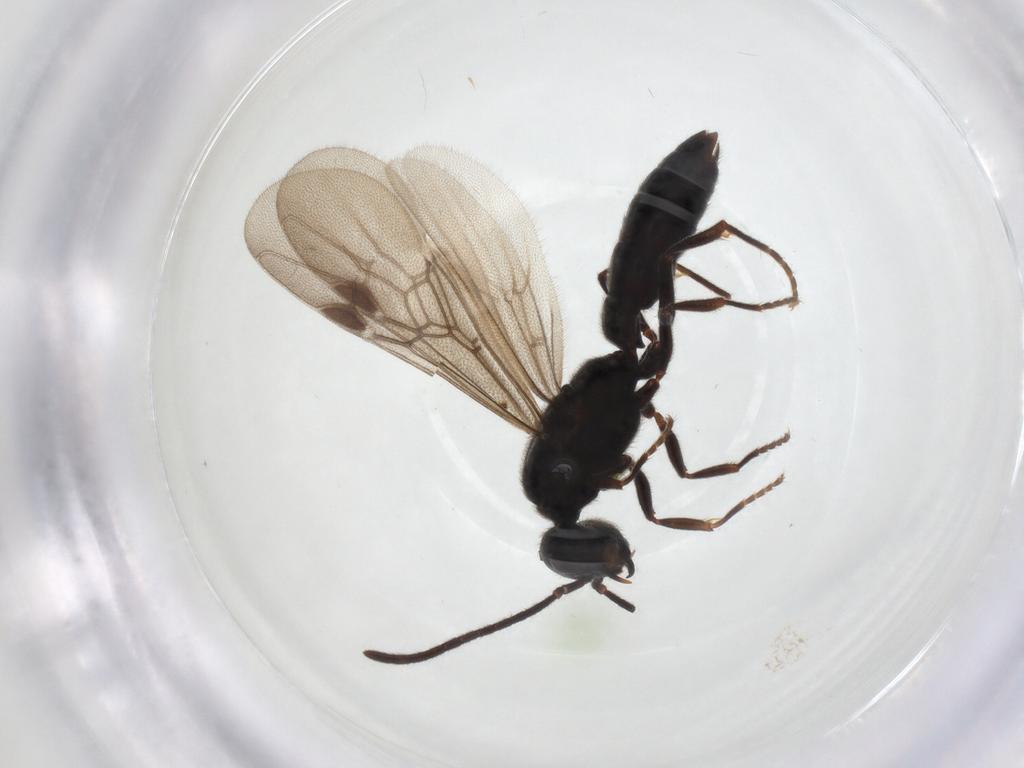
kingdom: Animalia
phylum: Arthropoda
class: Insecta
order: Hymenoptera
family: Formicidae
